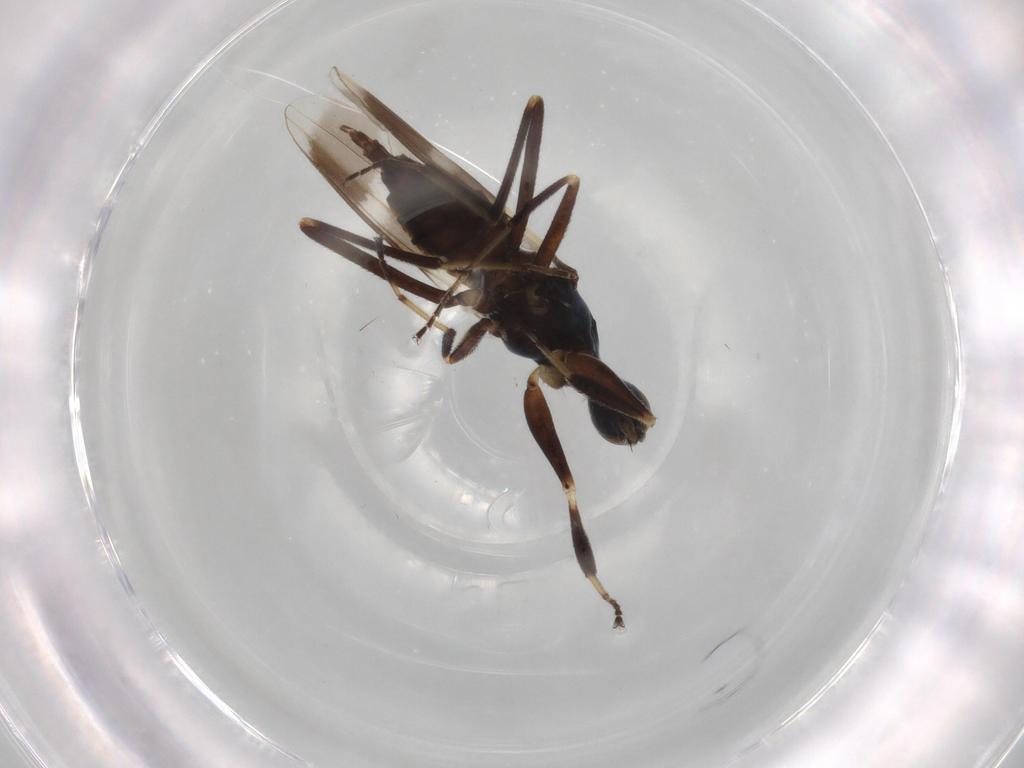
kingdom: Animalia
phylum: Arthropoda
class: Insecta
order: Diptera
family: Hybotidae
